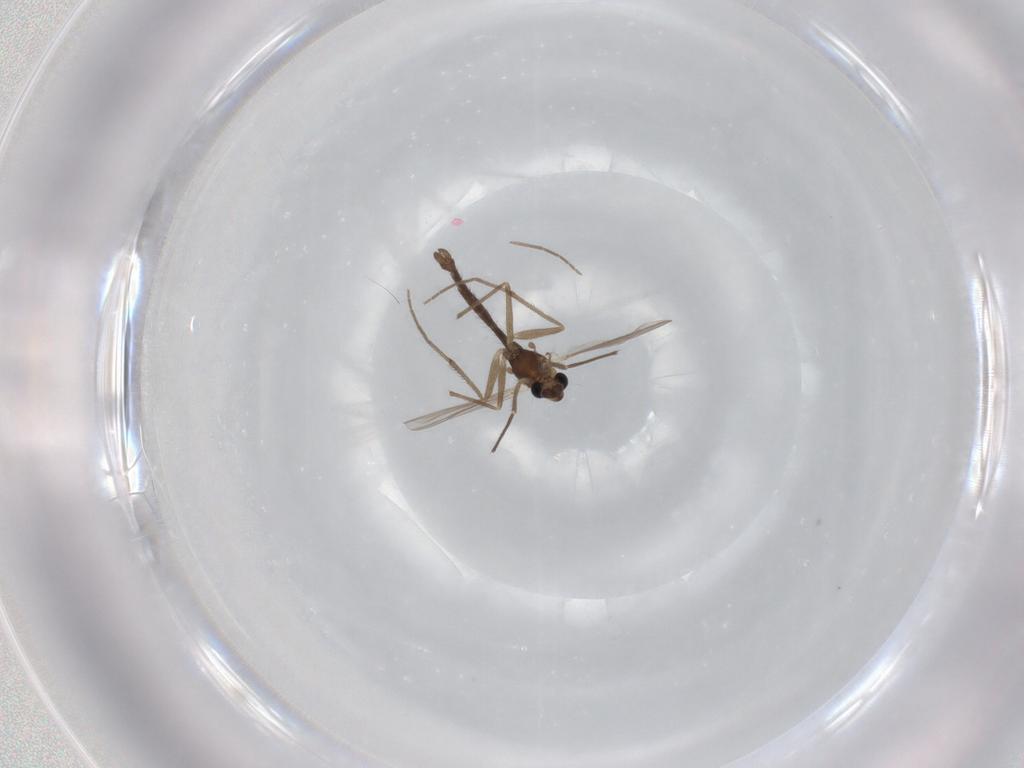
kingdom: Animalia
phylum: Arthropoda
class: Insecta
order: Diptera
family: Chironomidae
